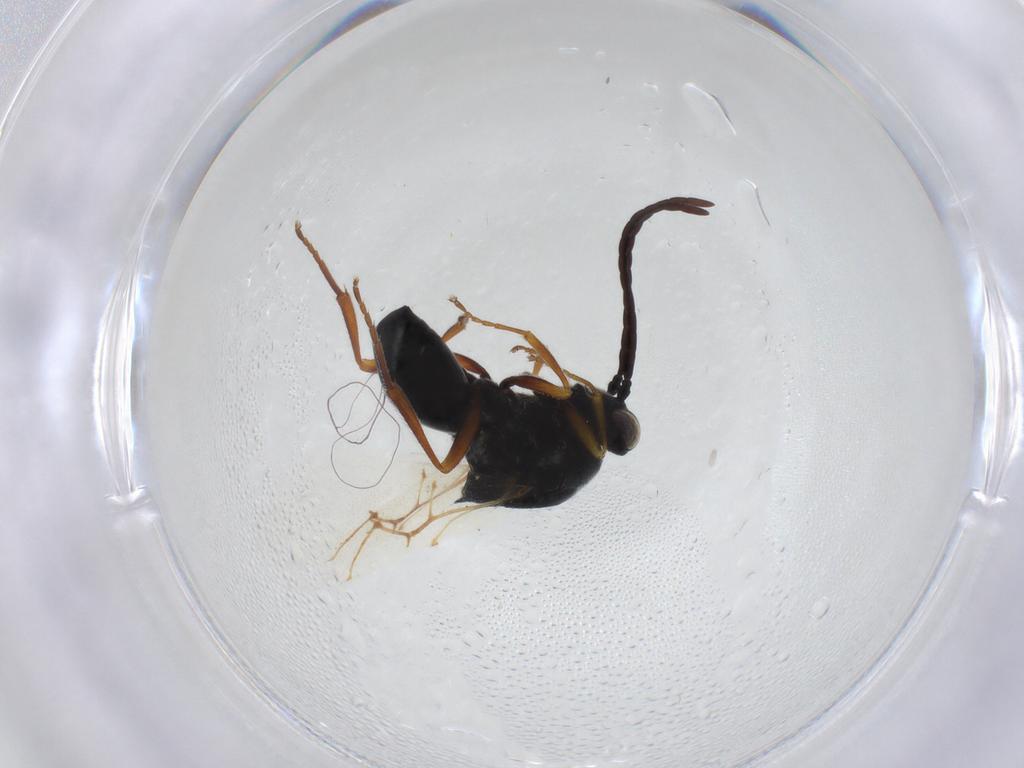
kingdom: Animalia
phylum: Arthropoda
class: Insecta
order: Hymenoptera
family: Figitidae
